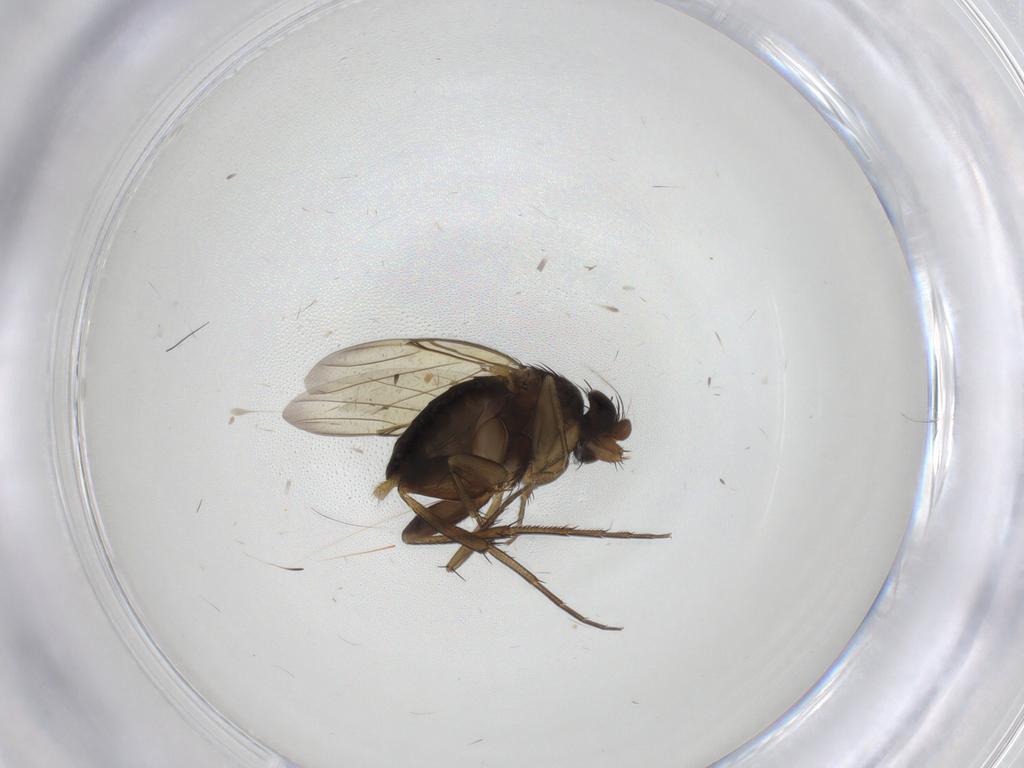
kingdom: Animalia
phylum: Arthropoda
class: Insecta
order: Diptera
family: Phoridae
